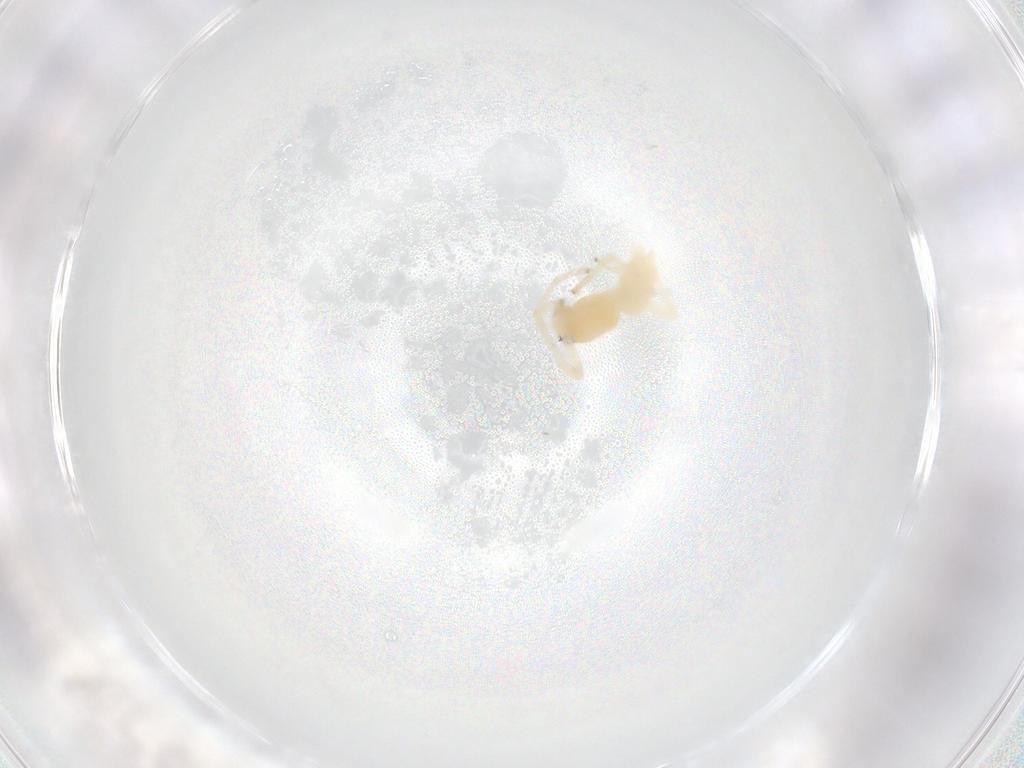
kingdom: Animalia
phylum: Arthropoda
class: Arachnida
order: Araneae
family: Anyphaenidae
